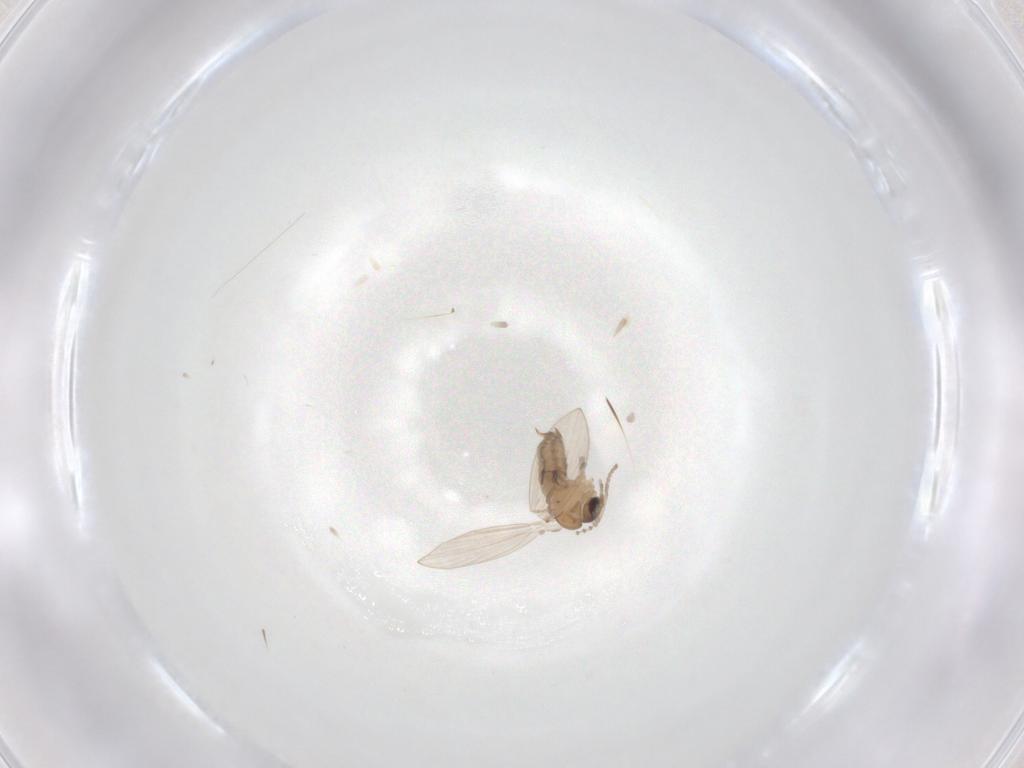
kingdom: Animalia
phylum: Arthropoda
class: Insecta
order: Diptera
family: Psychodidae
